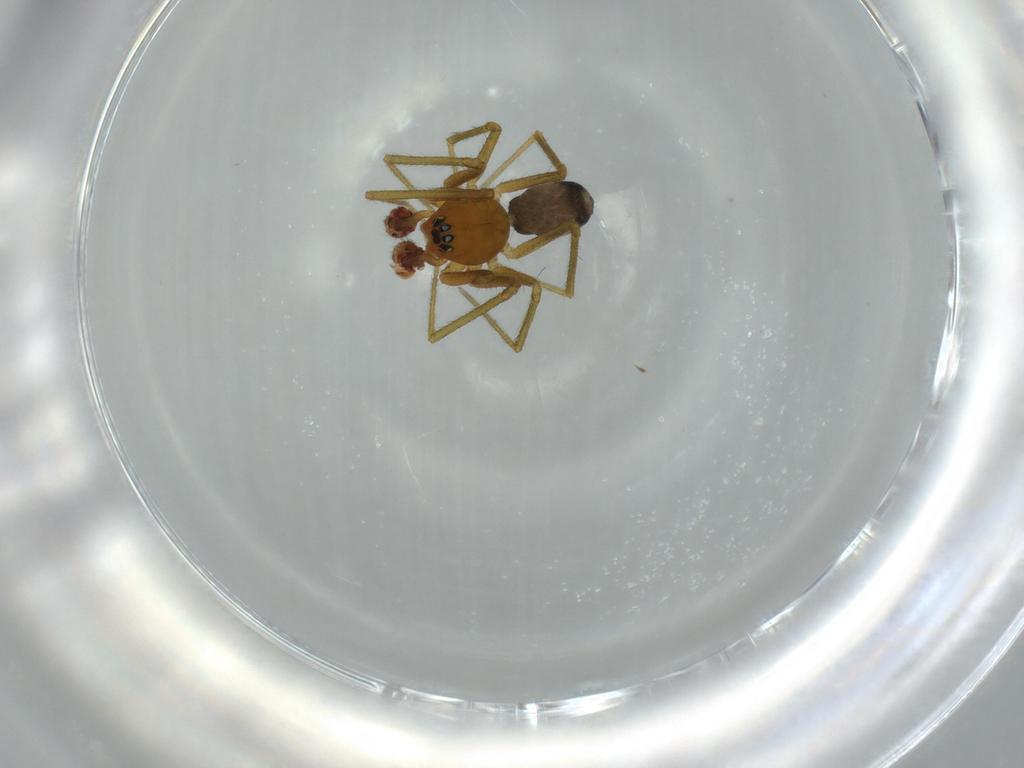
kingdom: Animalia
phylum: Arthropoda
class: Arachnida
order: Araneae
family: Linyphiidae
